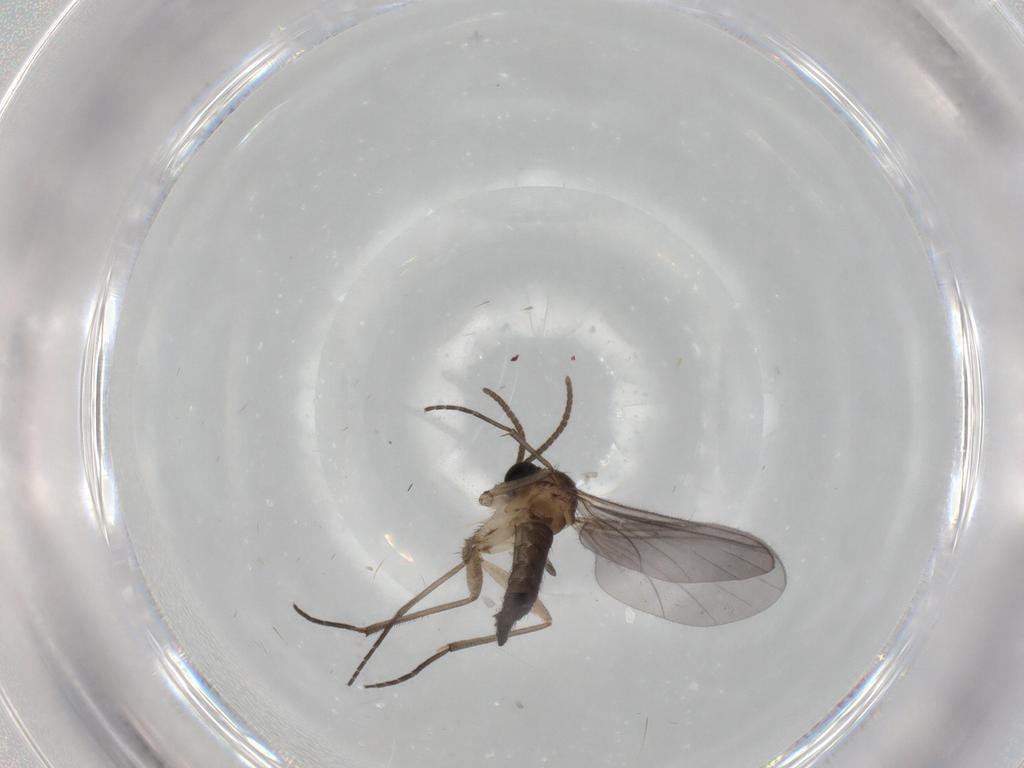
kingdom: Animalia
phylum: Arthropoda
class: Insecta
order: Diptera
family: Sciaridae
